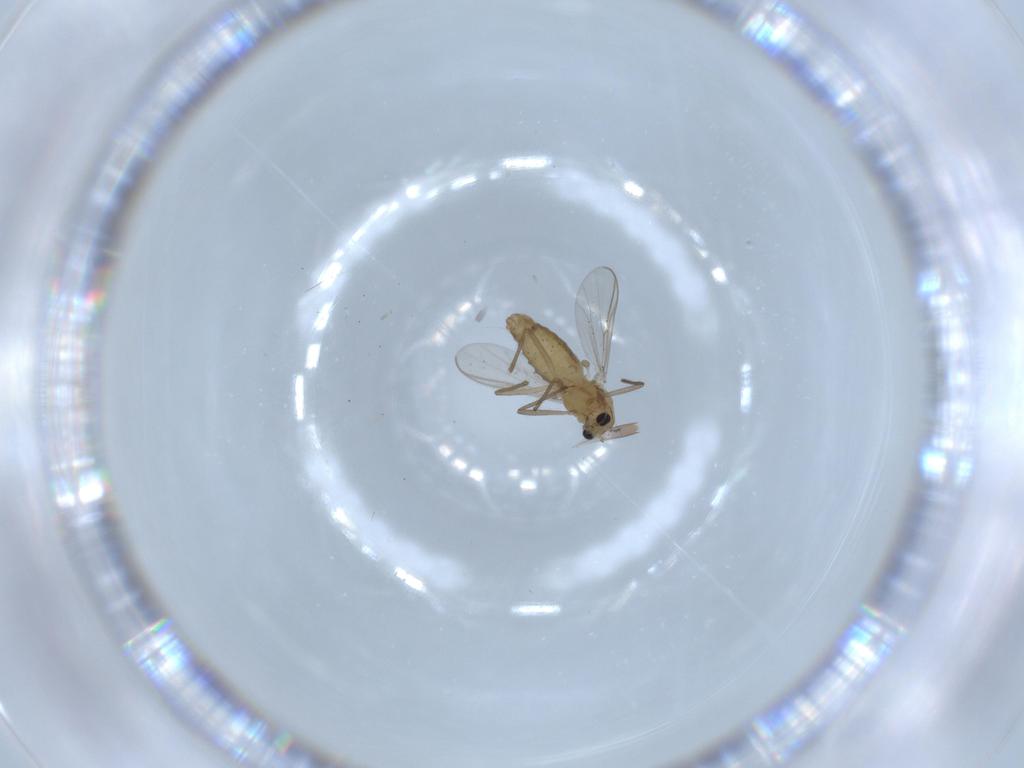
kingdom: Animalia
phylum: Arthropoda
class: Insecta
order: Diptera
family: Chironomidae
